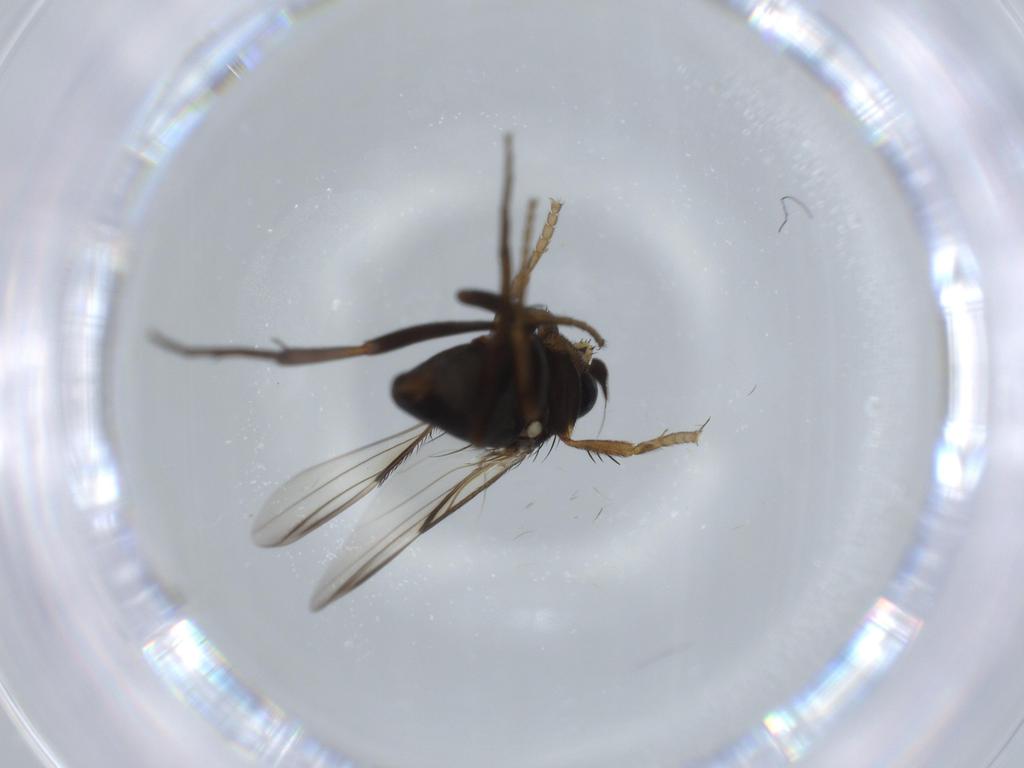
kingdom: Animalia
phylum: Arthropoda
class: Insecta
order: Diptera
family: Phoridae
